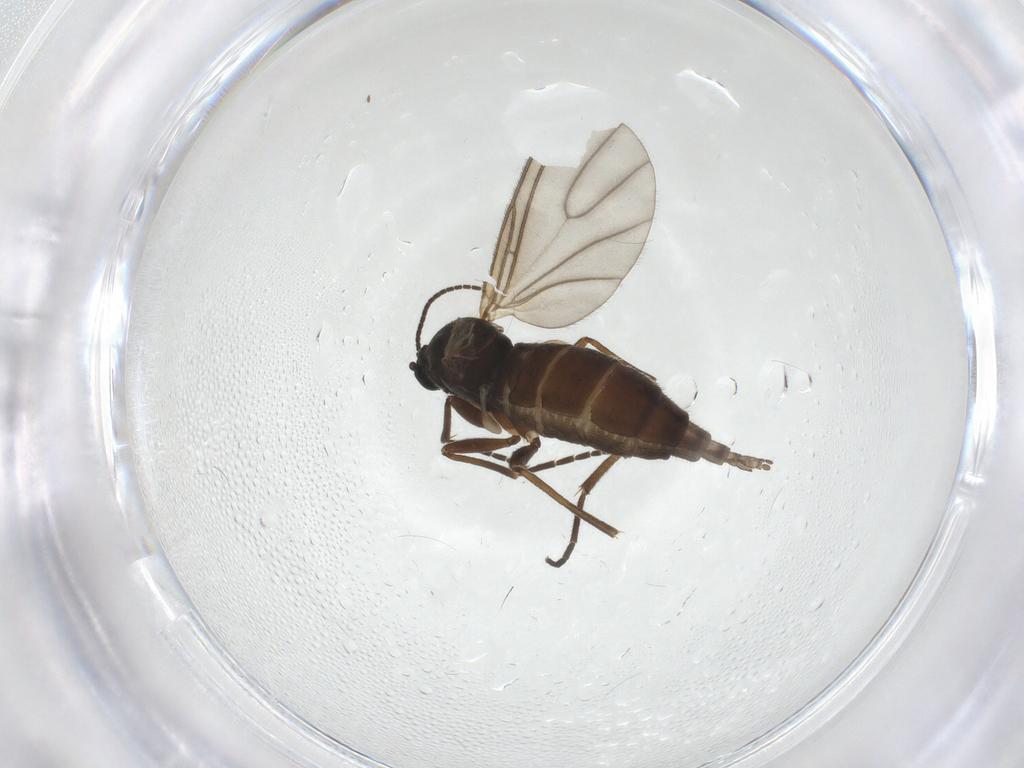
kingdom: Animalia
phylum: Arthropoda
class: Insecta
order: Diptera
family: Sciaridae
